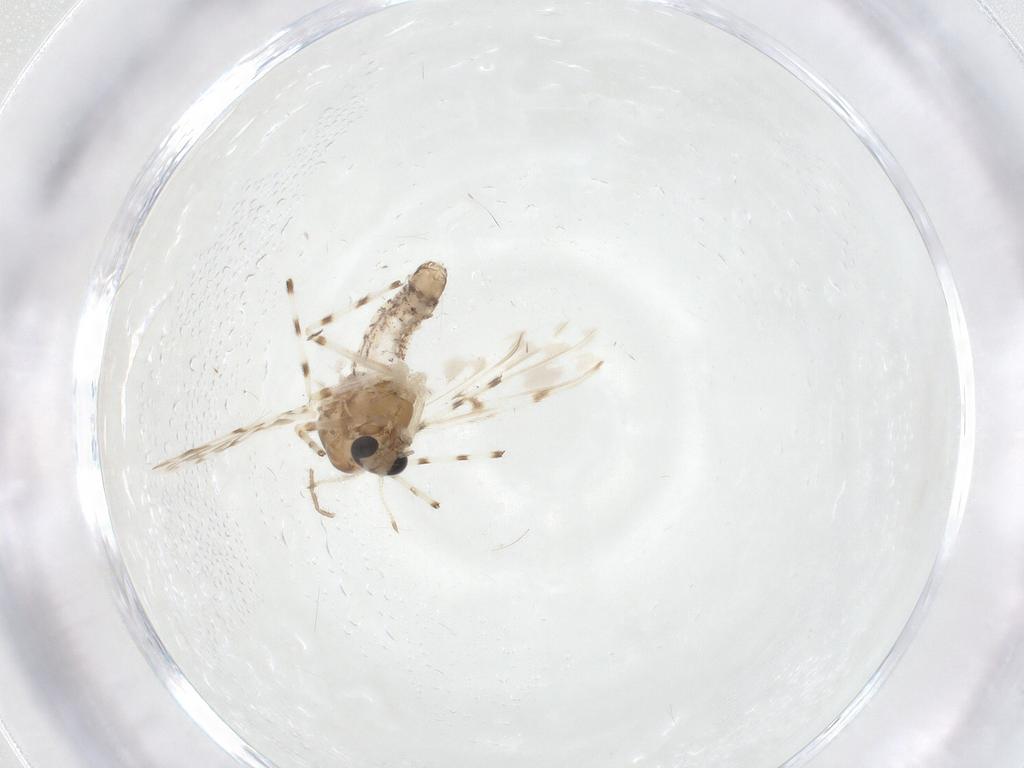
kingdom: Animalia
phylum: Arthropoda
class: Insecta
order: Diptera
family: Chironomidae
